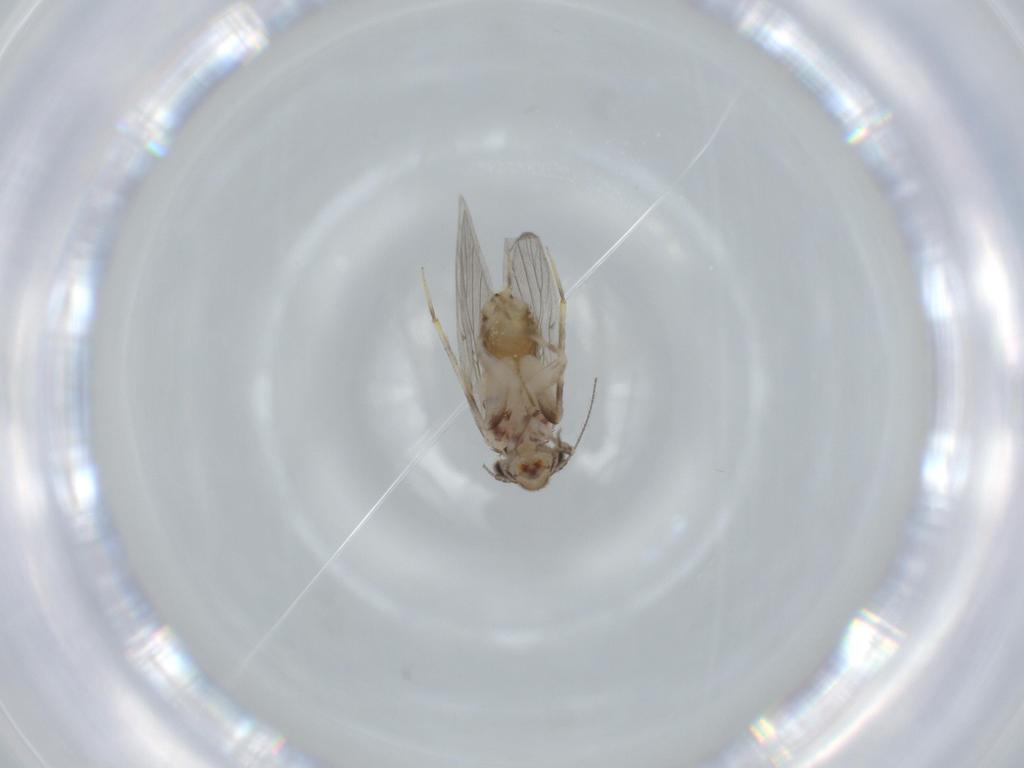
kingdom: Animalia
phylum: Arthropoda
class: Insecta
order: Psocodea
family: Lepidopsocidae
